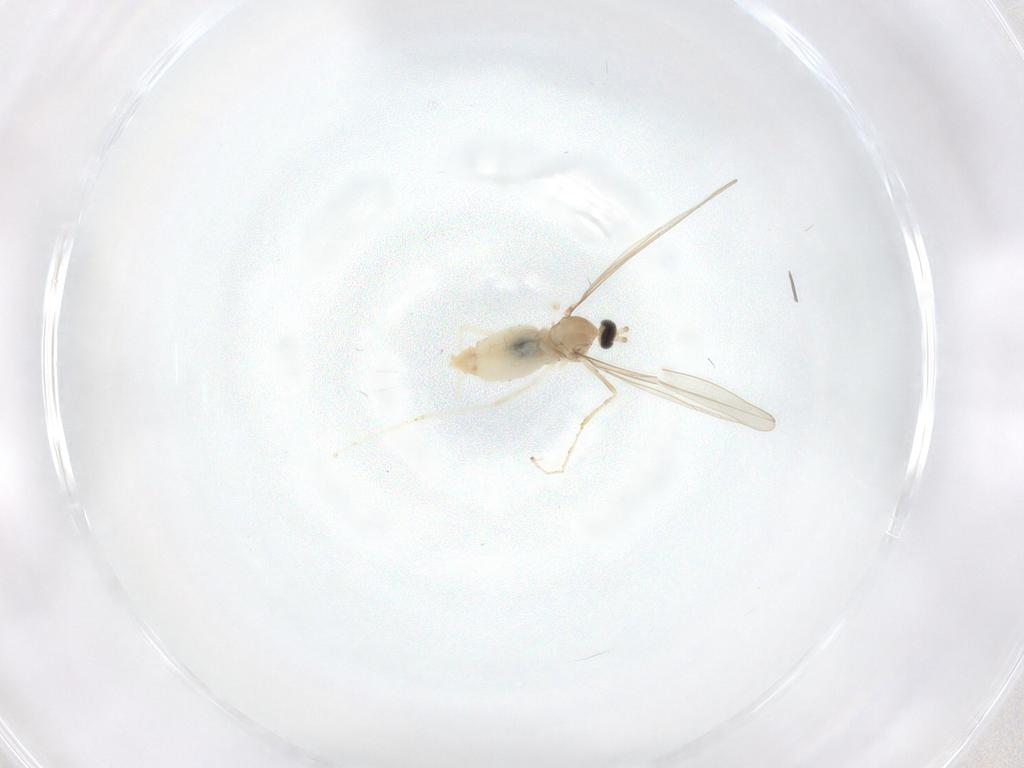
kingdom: Animalia
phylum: Arthropoda
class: Insecta
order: Diptera
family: Cecidomyiidae
